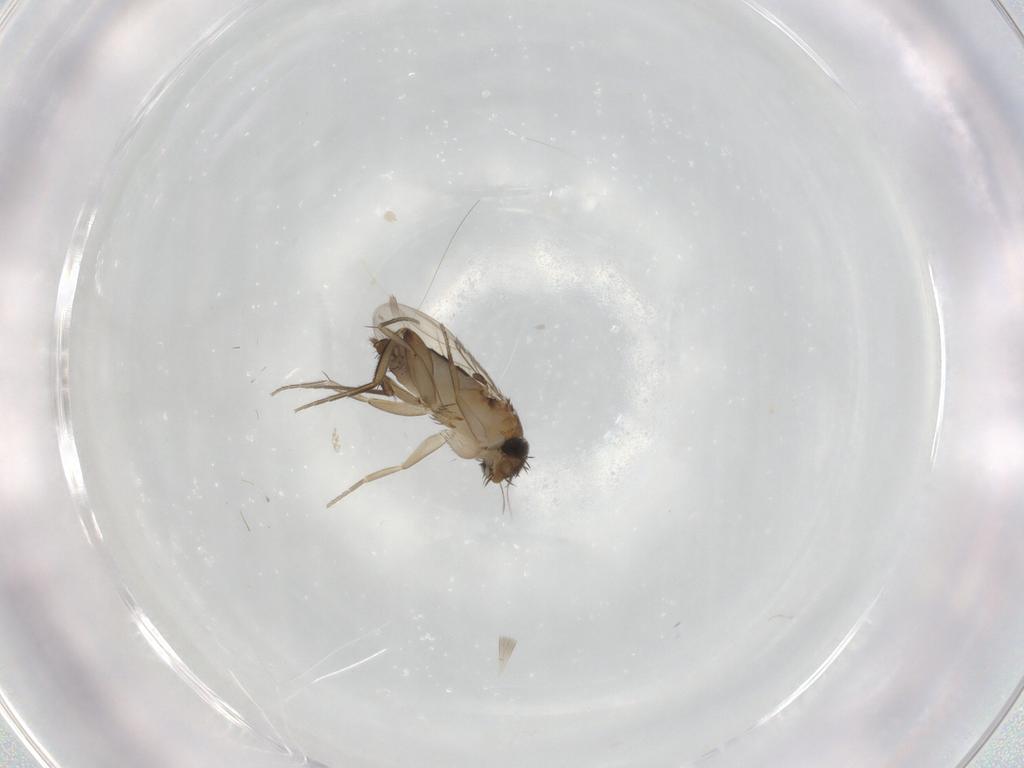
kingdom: Animalia
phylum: Arthropoda
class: Insecta
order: Diptera
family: Phoridae
